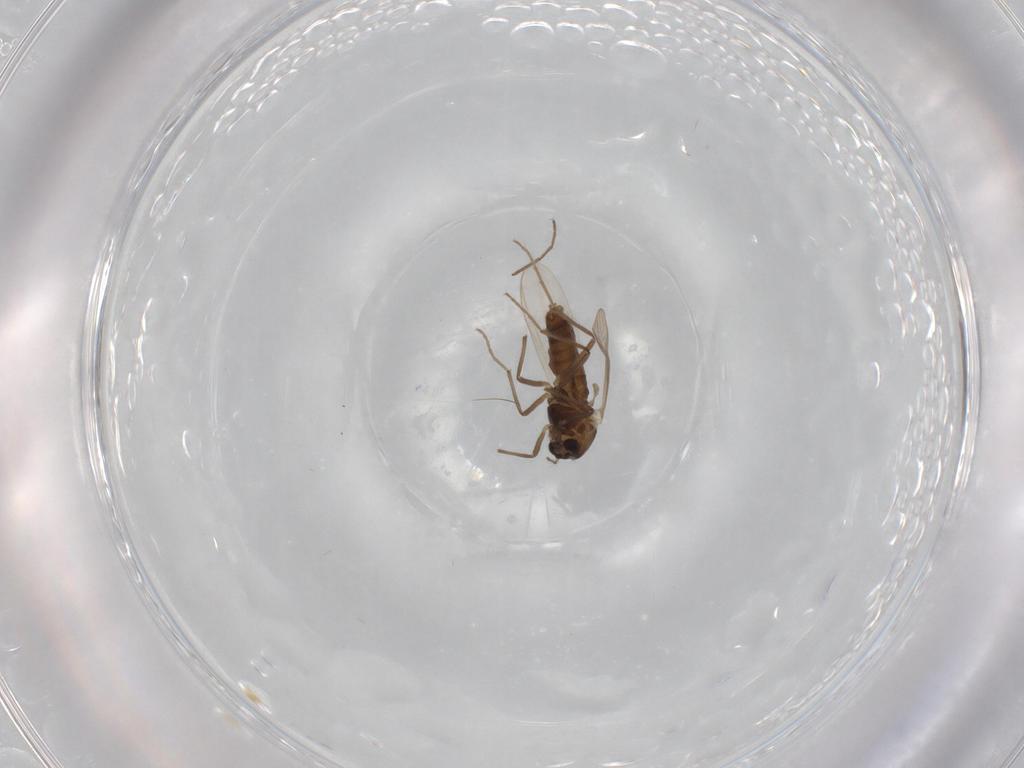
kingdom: Animalia
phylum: Arthropoda
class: Insecta
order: Diptera
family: Chironomidae
